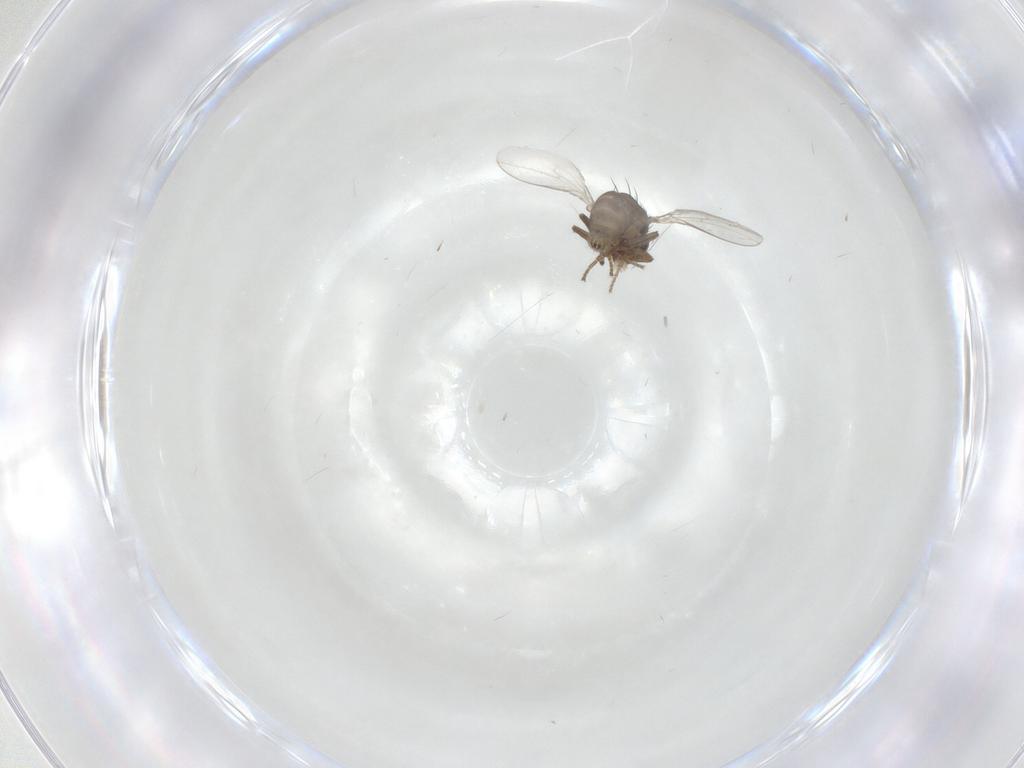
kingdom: Animalia
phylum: Arthropoda
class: Insecta
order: Diptera
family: Sphaeroceridae
